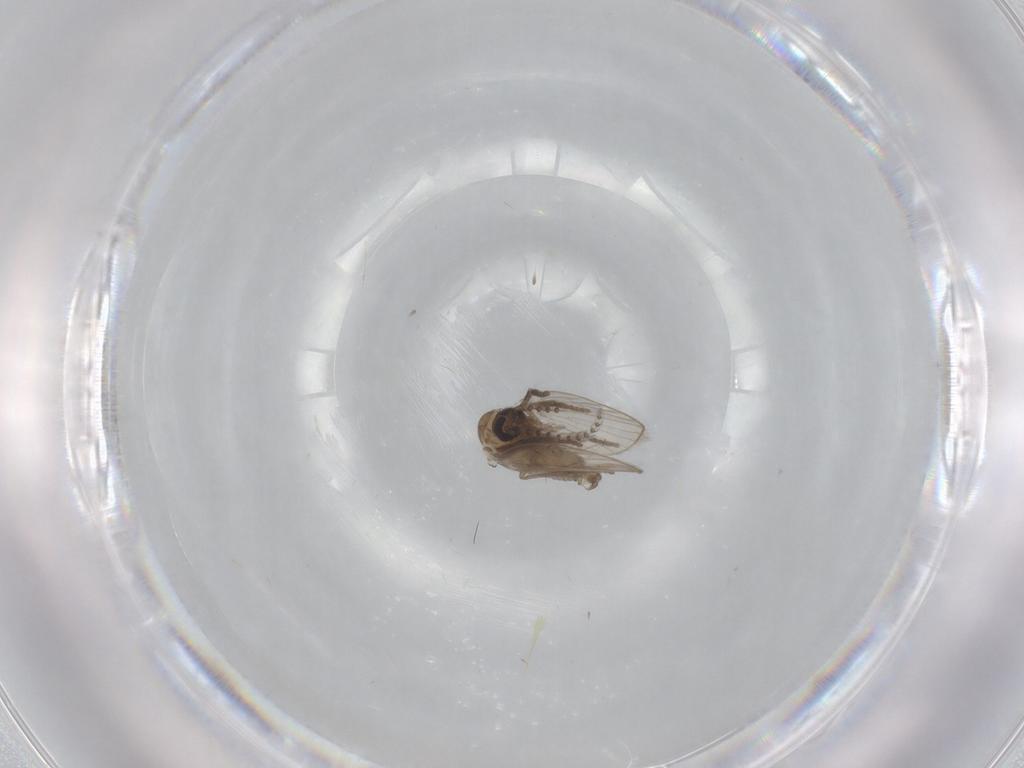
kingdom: Animalia
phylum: Arthropoda
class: Insecta
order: Diptera
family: Psychodidae
